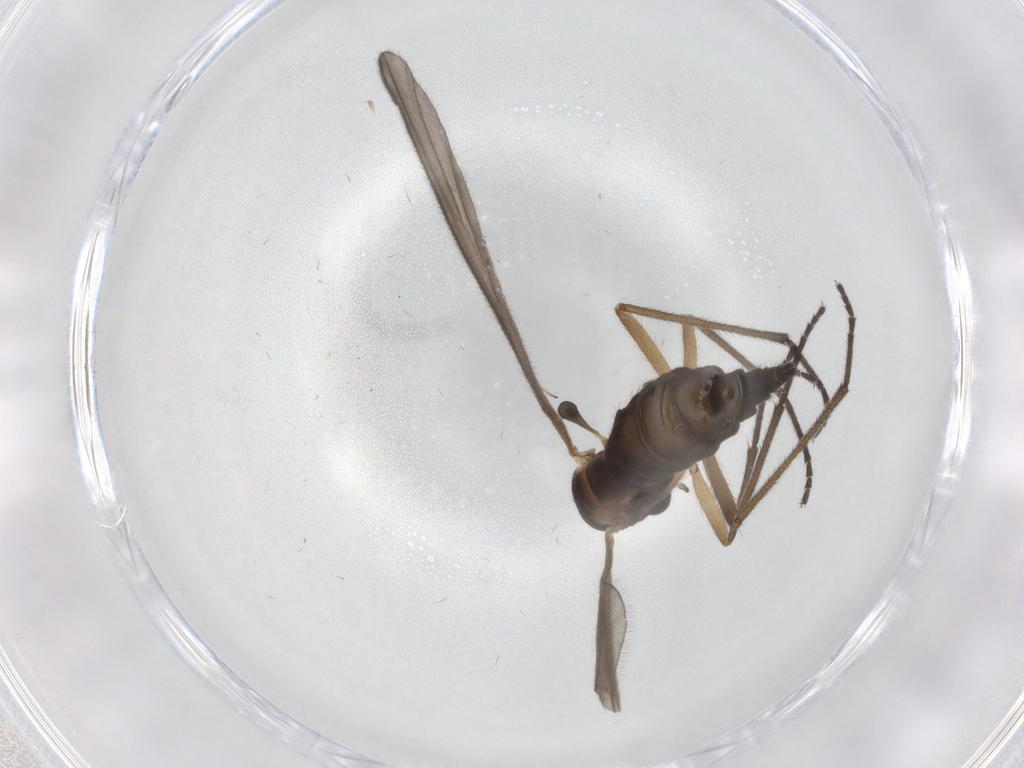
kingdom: Animalia
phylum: Arthropoda
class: Insecta
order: Diptera
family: Sciaridae
